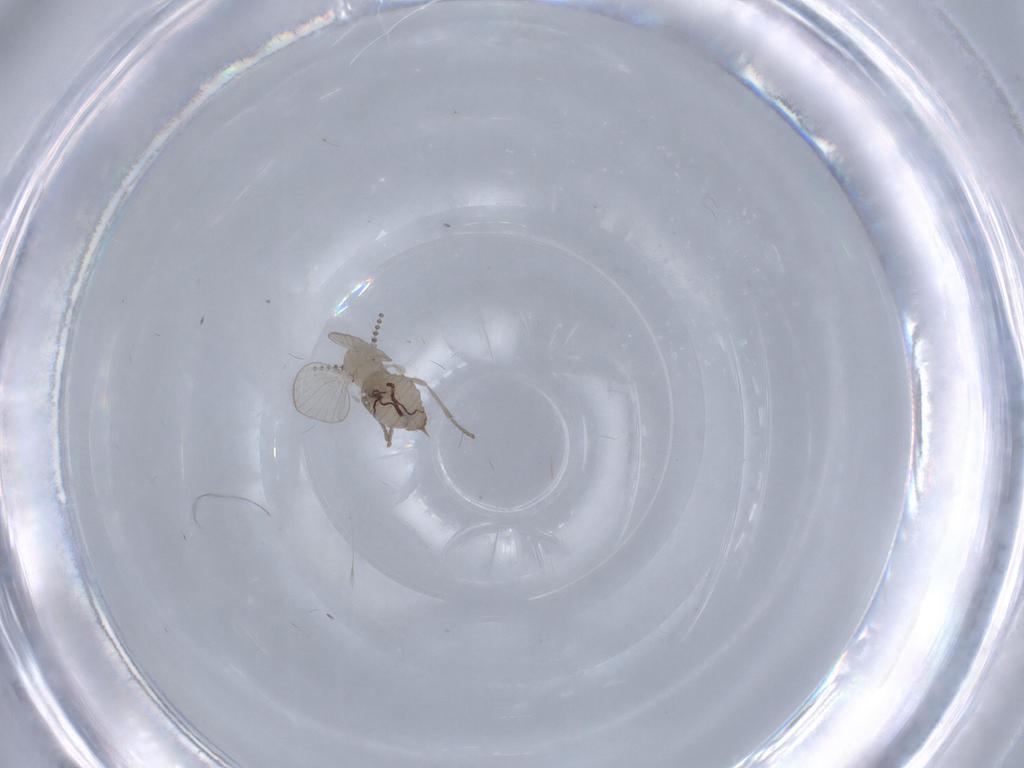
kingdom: Animalia
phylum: Arthropoda
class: Insecta
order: Diptera
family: Psychodidae
